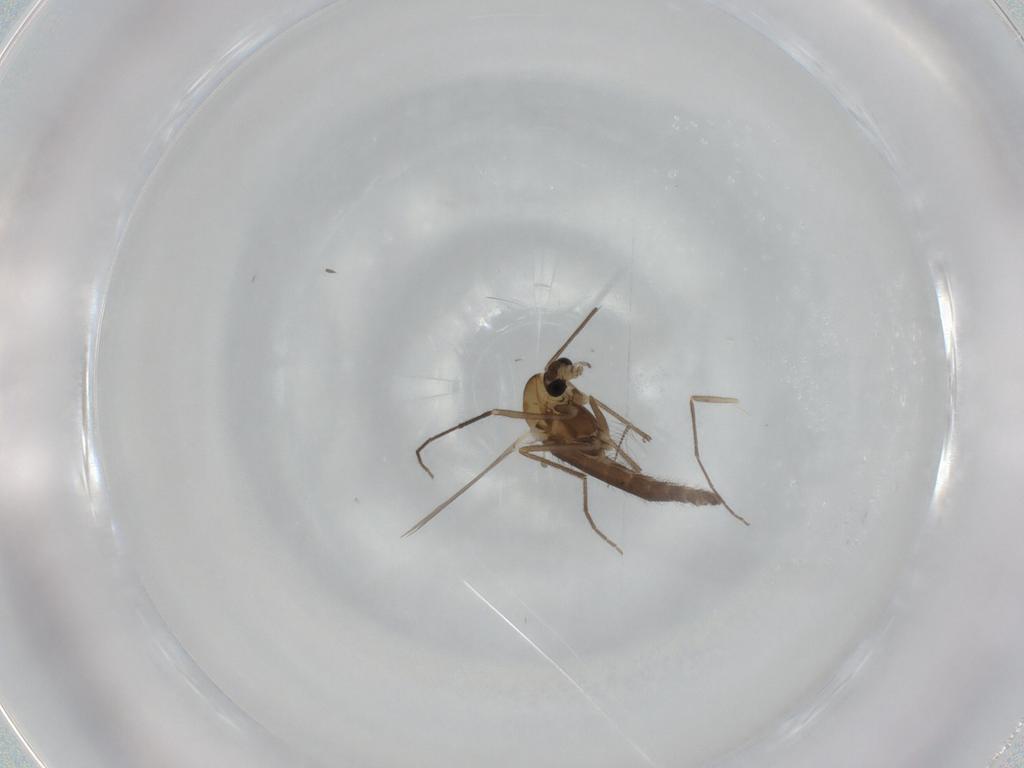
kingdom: Animalia
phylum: Arthropoda
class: Insecta
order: Diptera
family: Chironomidae
